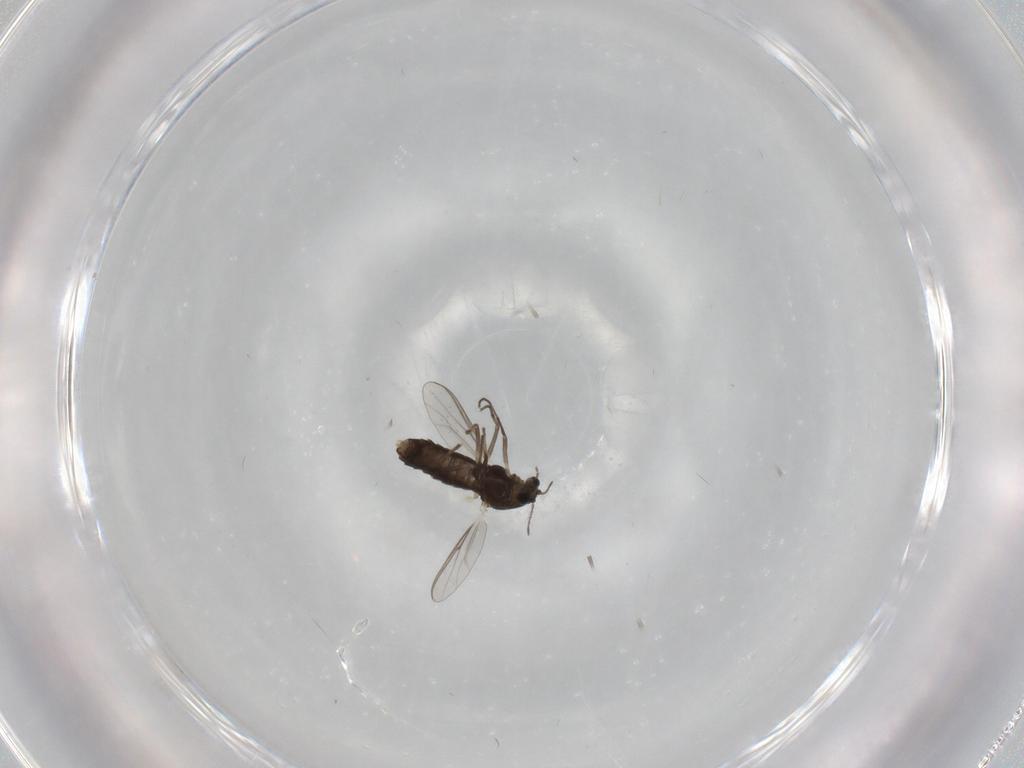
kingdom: Animalia
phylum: Arthropoda
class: Insecta
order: Diptera
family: Chironomidae
